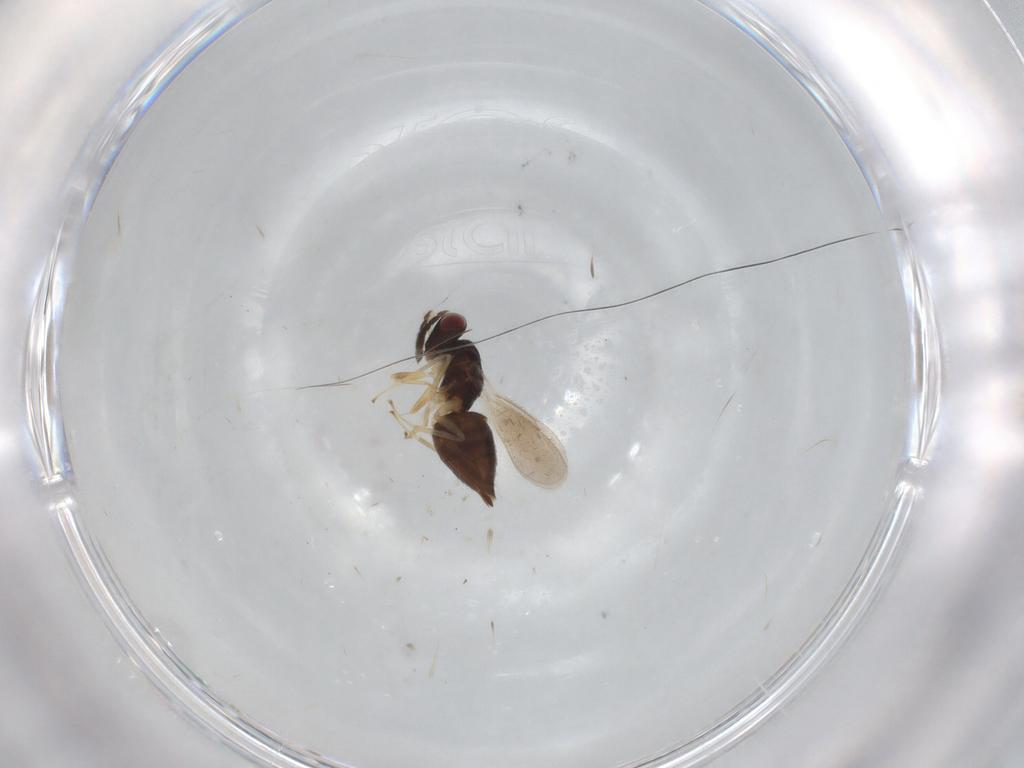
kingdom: Animalia
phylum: Arthropoda
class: Insecta
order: Hymenoptera
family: Eulophidae
